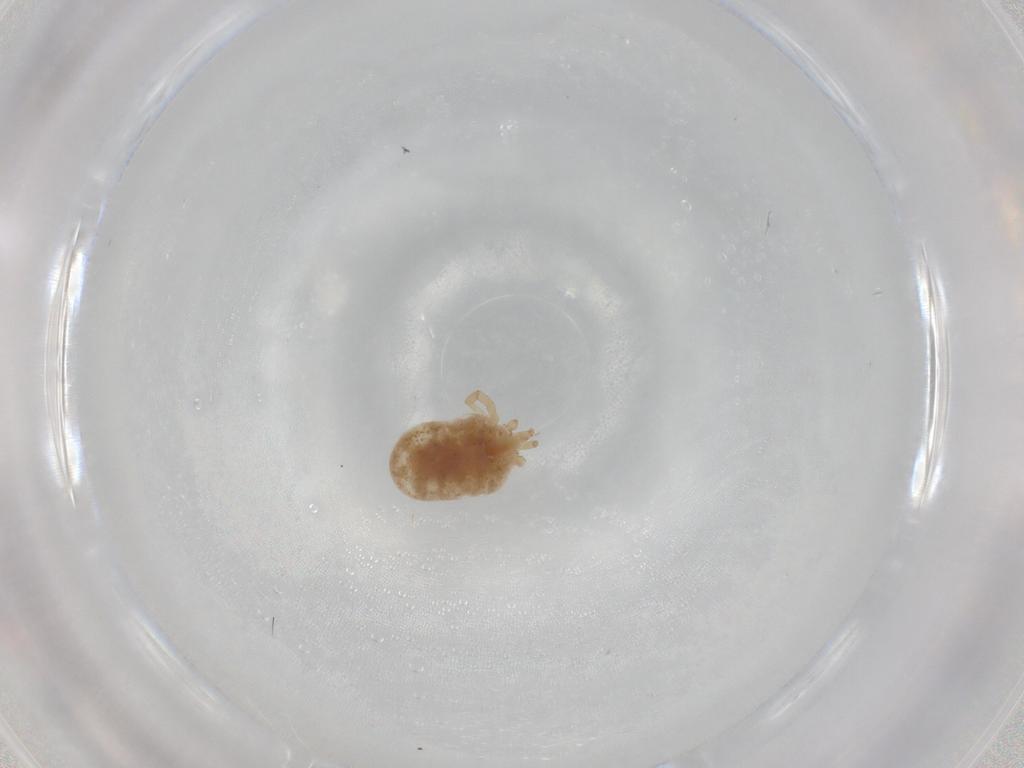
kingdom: Animalia
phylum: Arthropoda
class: Arachnida
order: Trombidiformes
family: Erythraeidae
